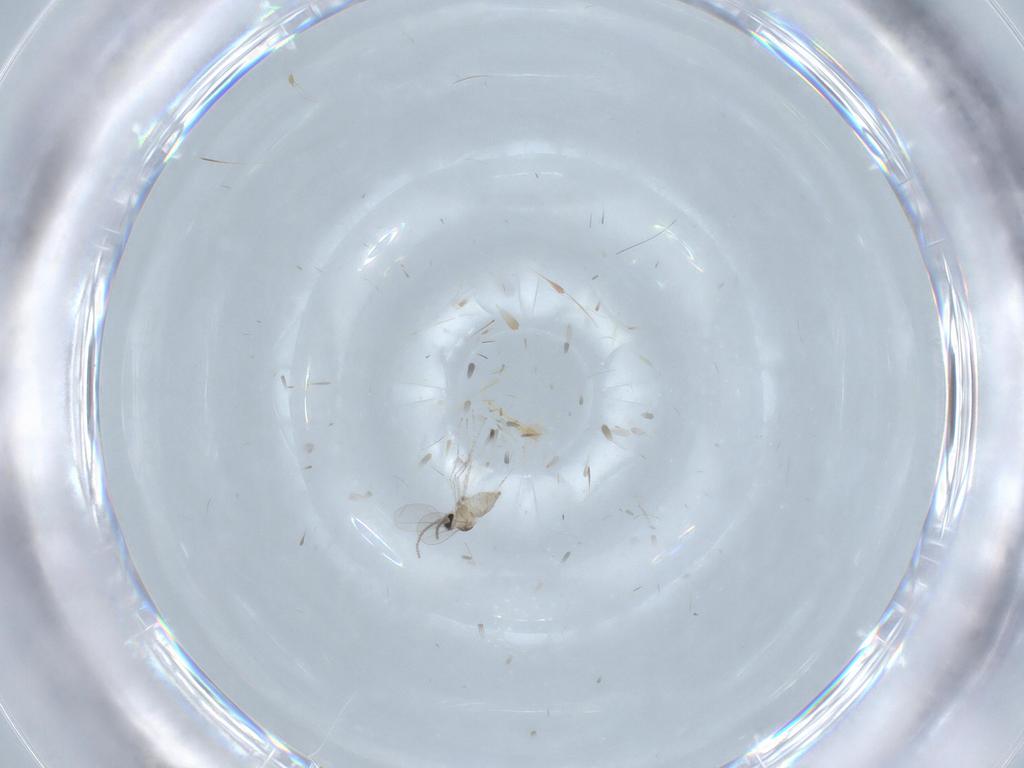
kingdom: Animalia
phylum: Arthropoda
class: Insecta
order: Diptera
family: Cecidomyiidae
